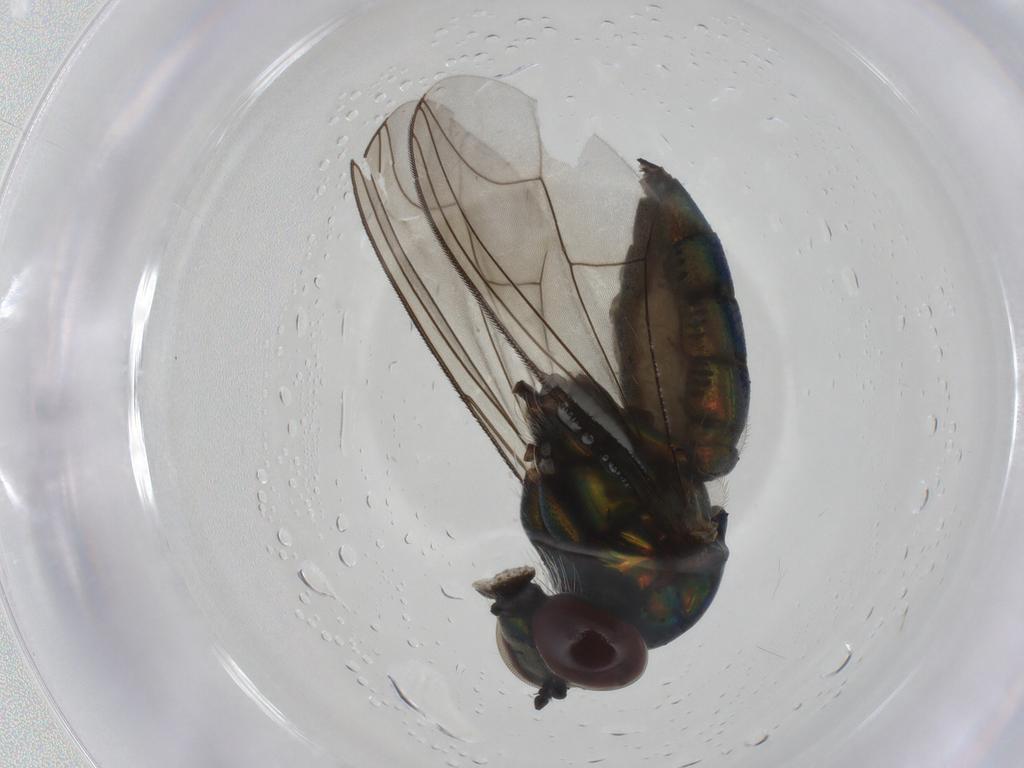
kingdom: Animalia
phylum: Arthropoda
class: Insecta
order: Diptera
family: Dolichopodidae
